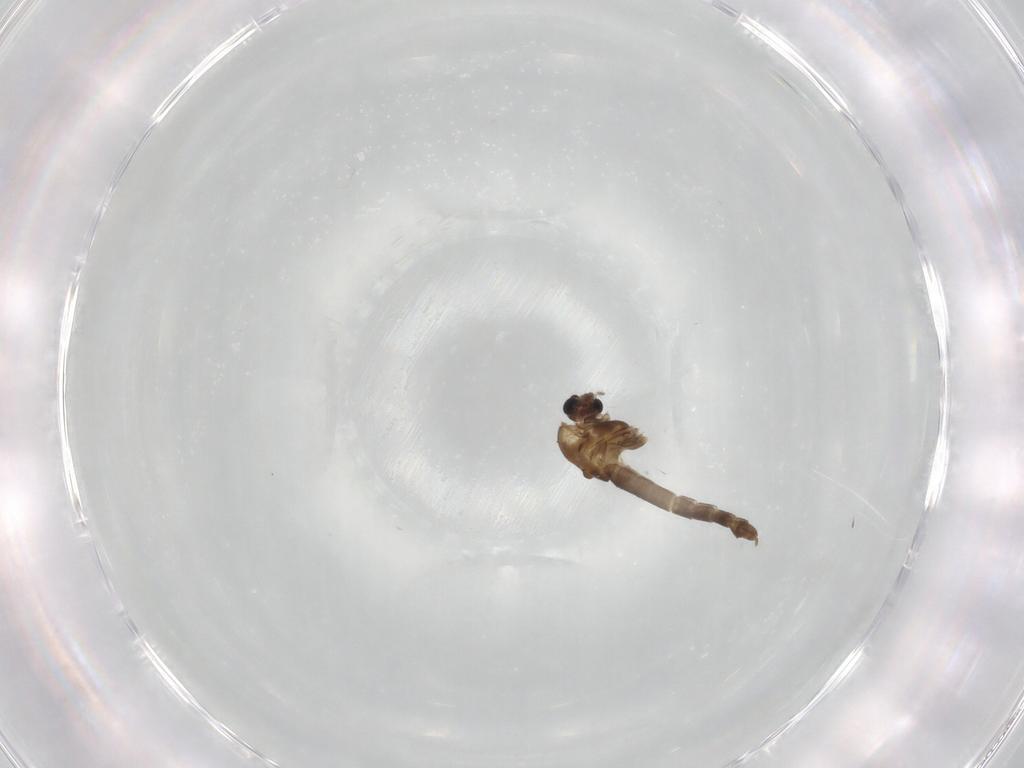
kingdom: Animalia
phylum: Arthropoda
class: Insecta
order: Diptera
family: Chironomidae
